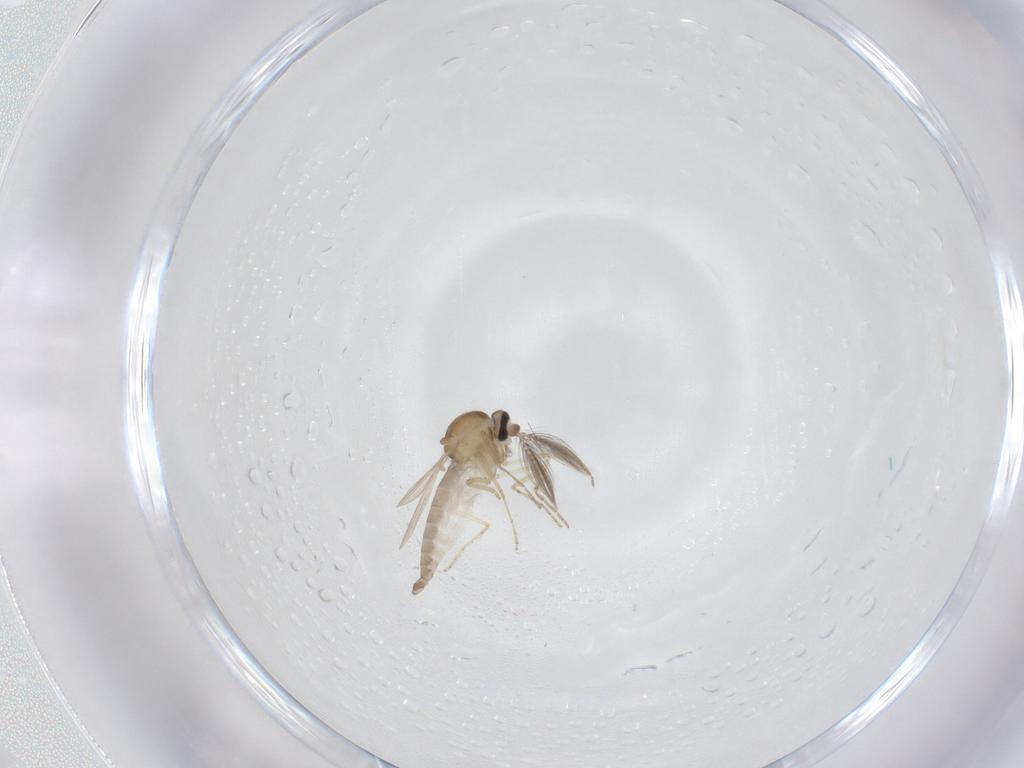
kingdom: Animalia
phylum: Arthropoda
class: Insecta
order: Diptera
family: Ceratopogonidae
